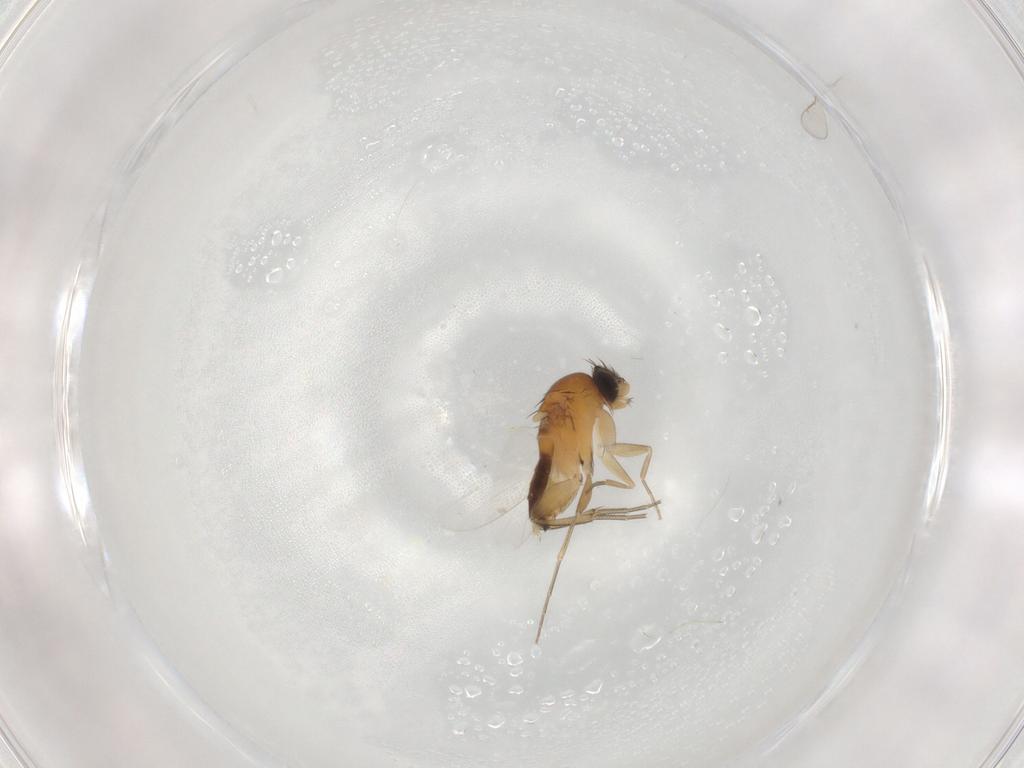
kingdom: Animalia
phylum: Arthropoda
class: Insecta
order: Diptera
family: Phoridae
